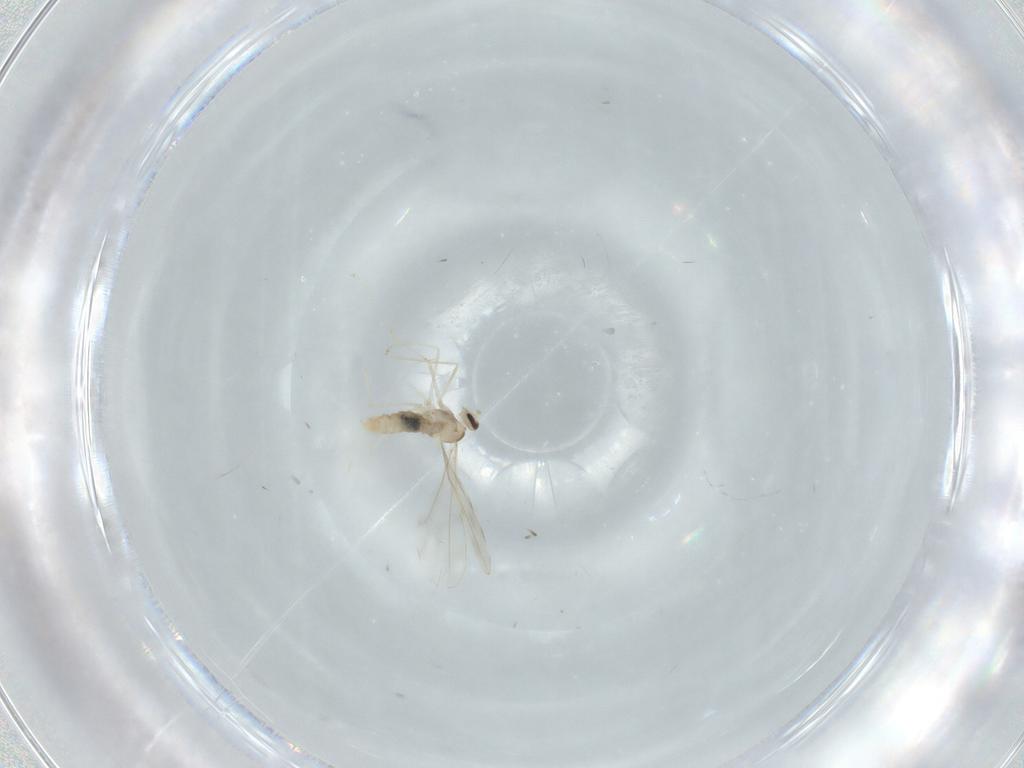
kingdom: Animalia
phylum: Arthropoda
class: Insecta
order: Diptera
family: Cecidomyiidae
